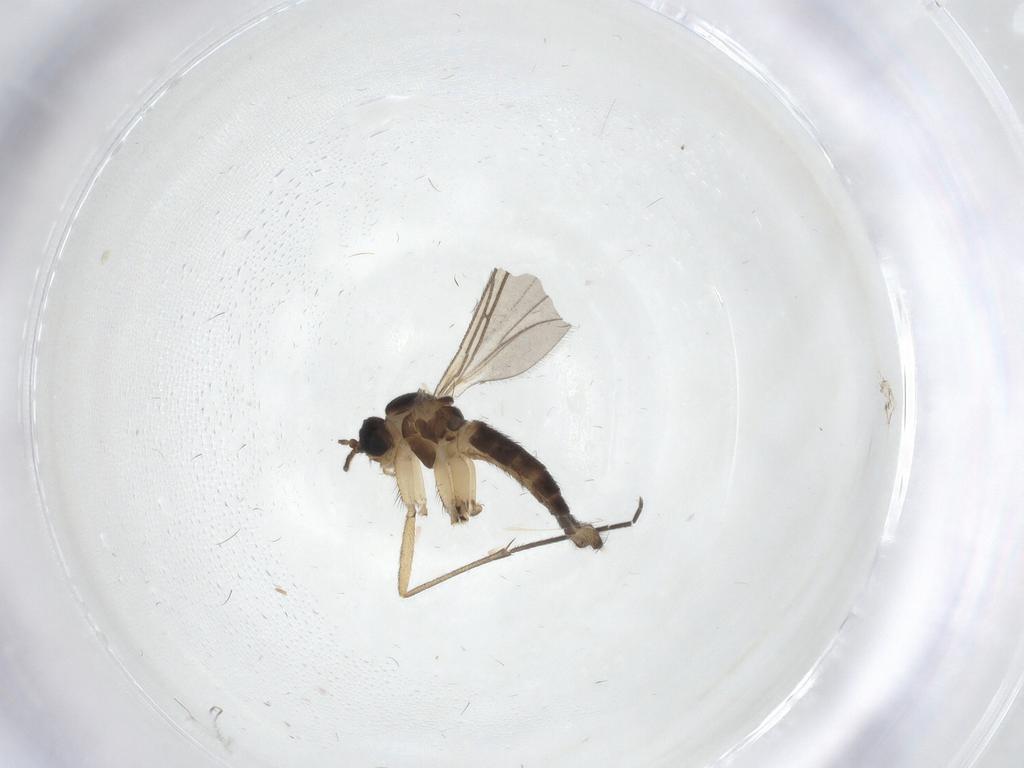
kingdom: Animalia
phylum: Arthropoda
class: Insecta
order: Diptera
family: Sciaridae
